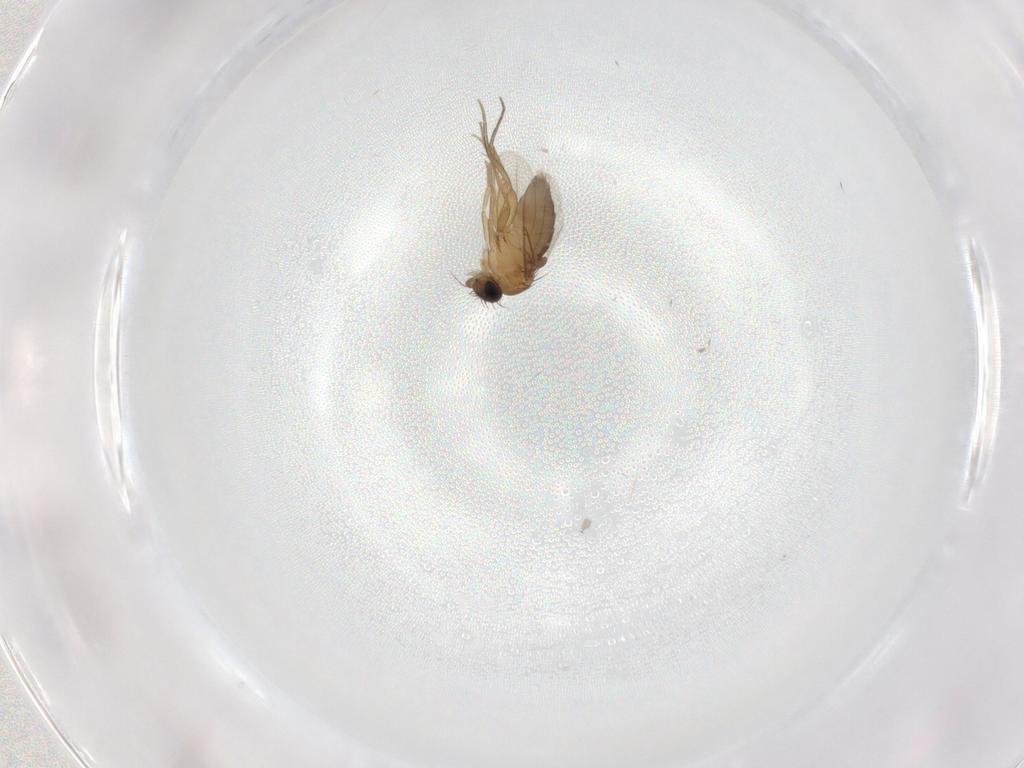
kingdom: Animalia
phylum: Arthropoda
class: Insecta
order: Diptera
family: Phoridae
